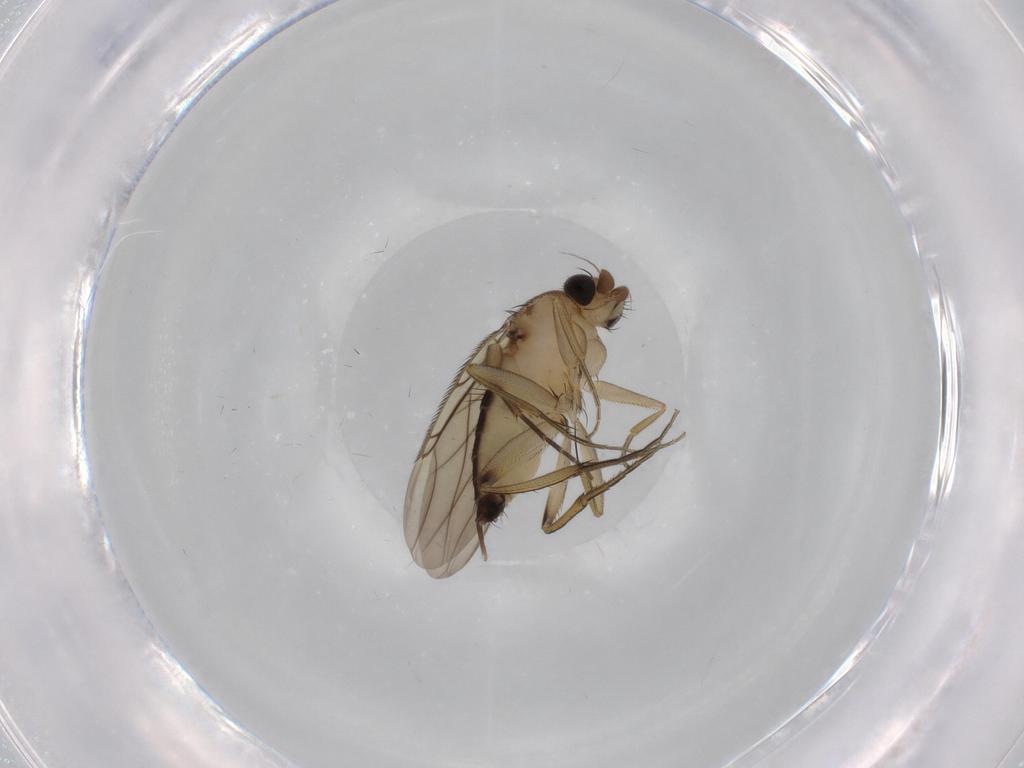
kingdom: Animalia
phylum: Arthropoda
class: Insecta
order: Diptera
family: Phoridae
